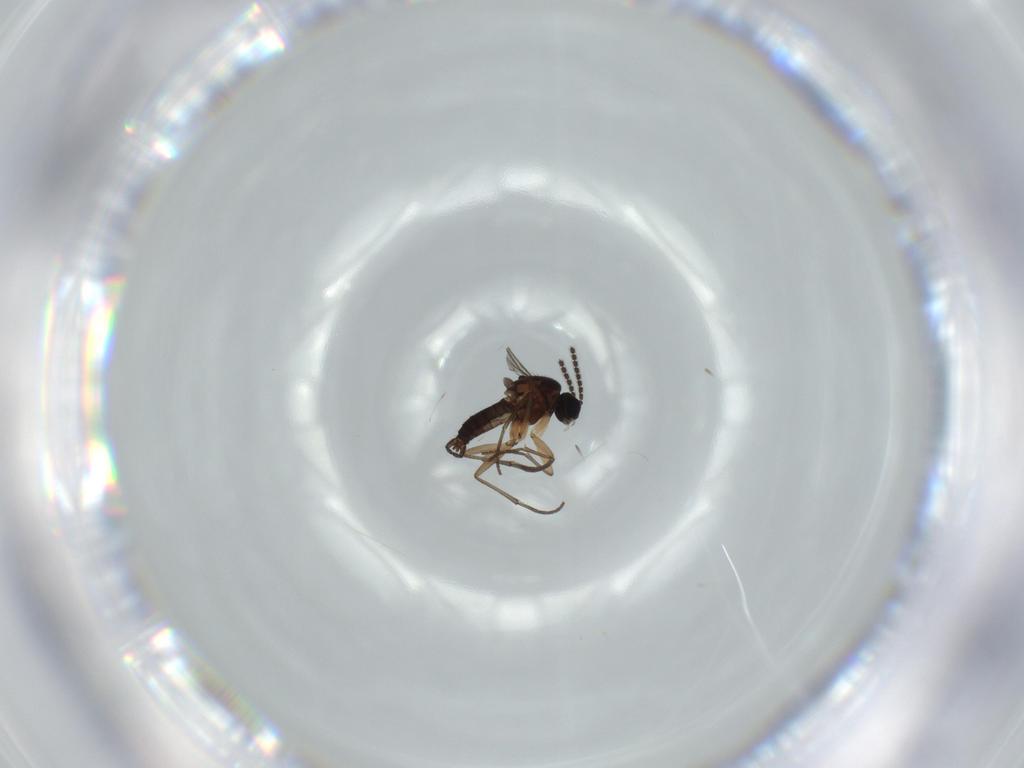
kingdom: Animalia
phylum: Arthropoda
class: Insecta
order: Diptera
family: Sciaridae
